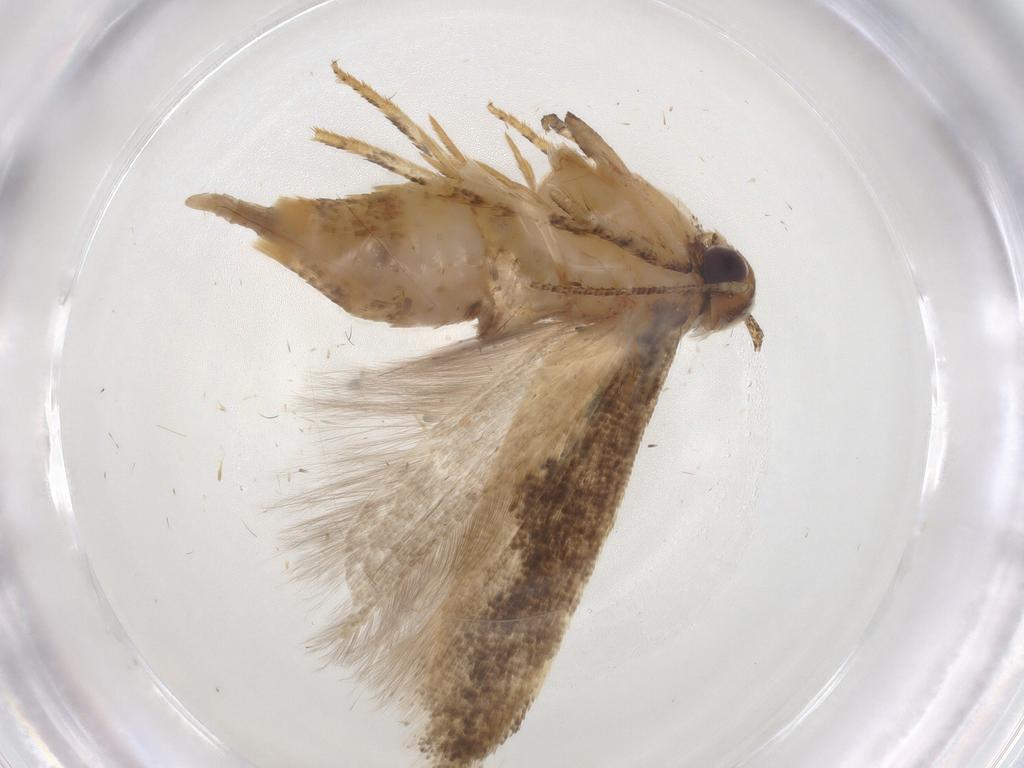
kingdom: Animalia
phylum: Arthropoda
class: Insecta
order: Lepidoptera
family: Gelechiidae
